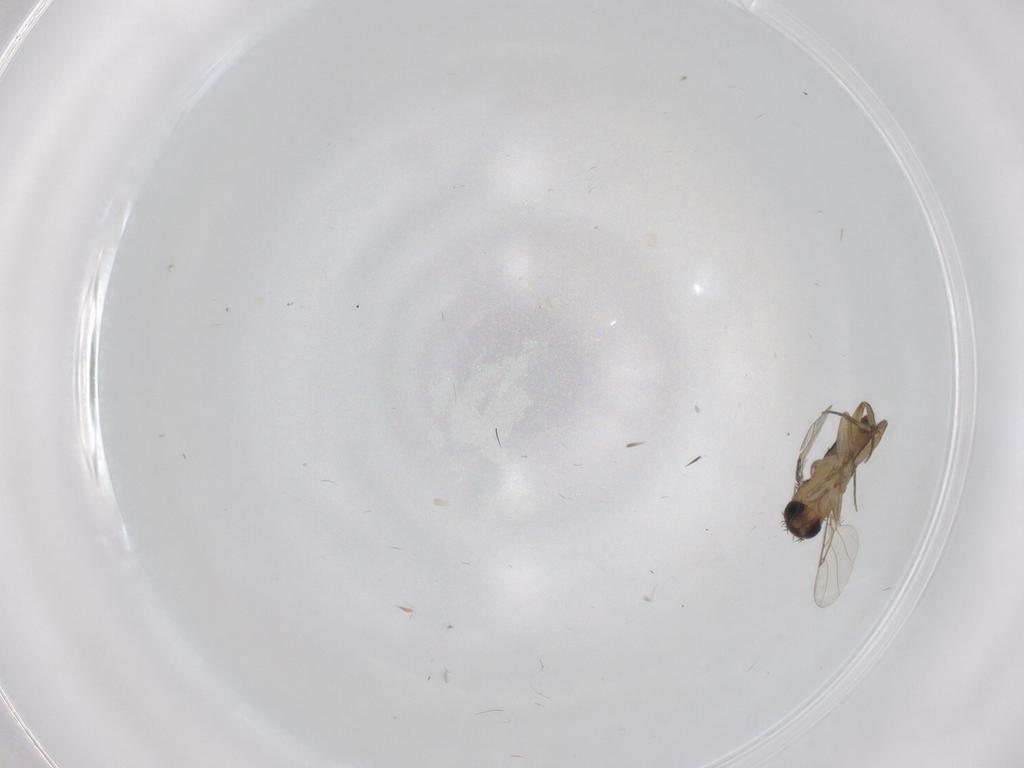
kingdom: Animalia
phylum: Arthropoda
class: Insecta
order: Diptera
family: Phoridae
